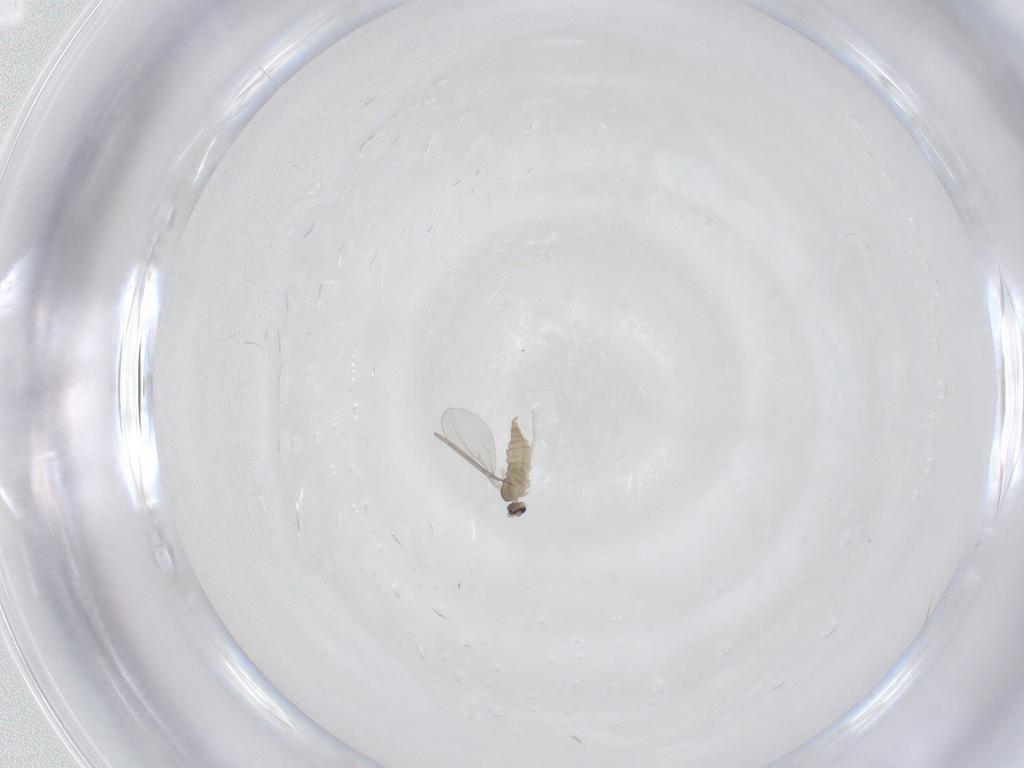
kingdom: Animalia
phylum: Arthropoda
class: Insecta
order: Diptera
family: Cecidomyiidae
